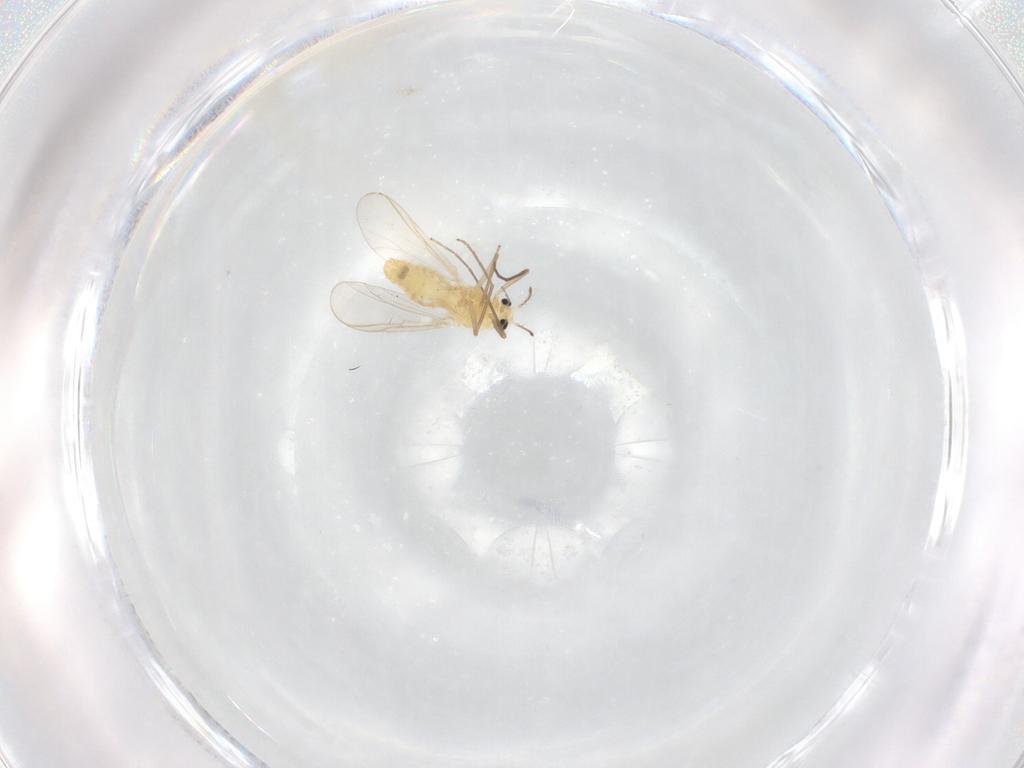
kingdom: Animalia
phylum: Arthropoda
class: Insecta
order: Diptera
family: Chironomidae
